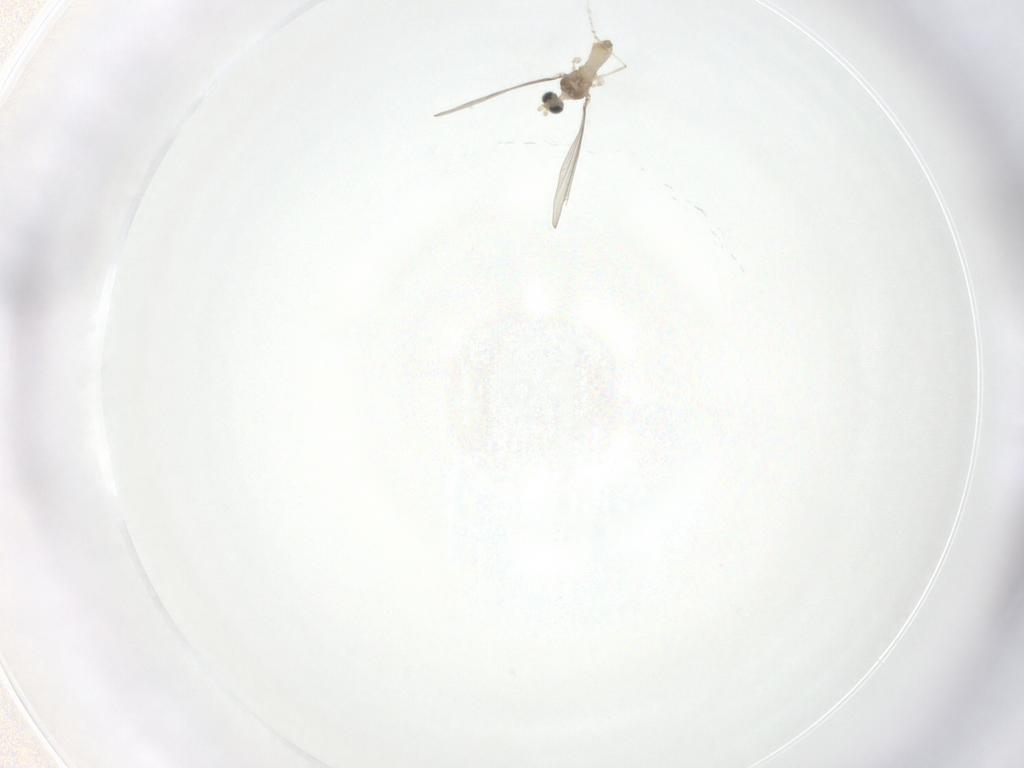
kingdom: Animalia
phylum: Arthropoda
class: Insecta
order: Diptera
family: Cecidomyiidae
